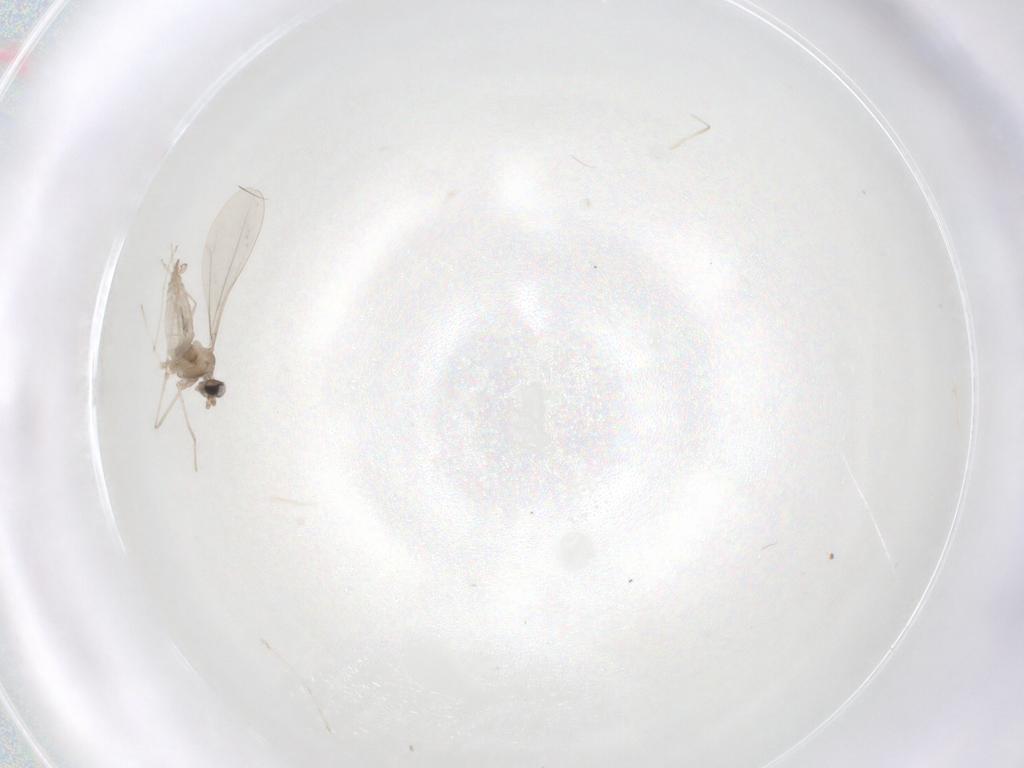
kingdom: Animalia
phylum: Arthropoda
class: Insecta
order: Diptera
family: Cecidomyiidae
